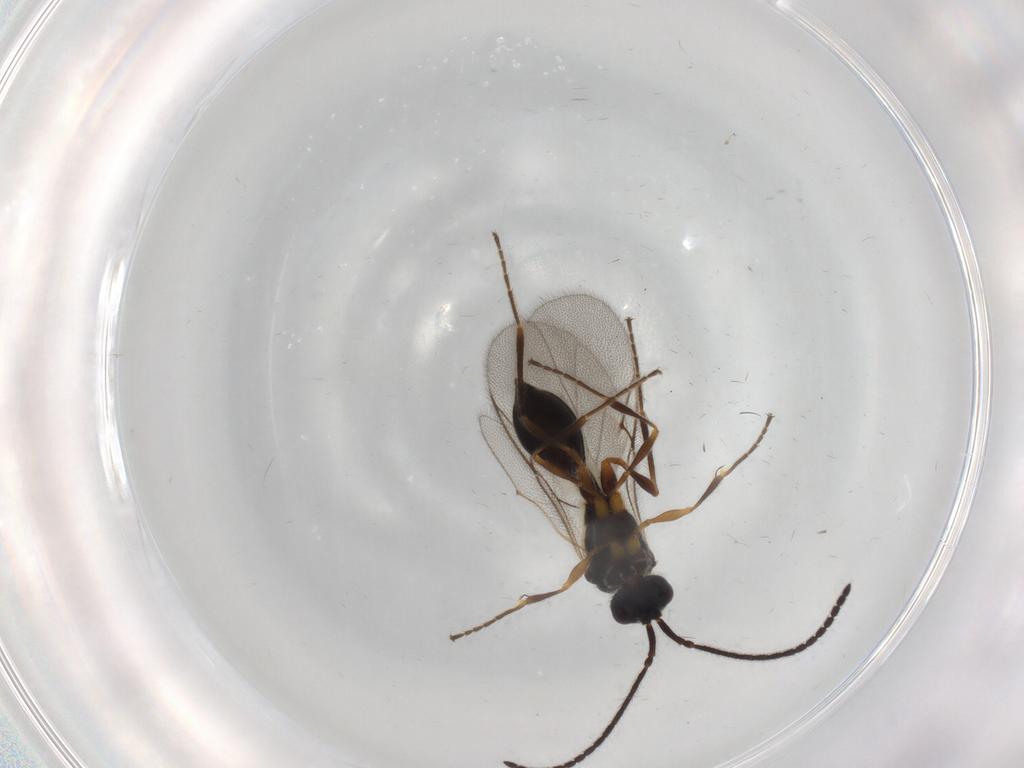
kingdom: Animalia
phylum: Arthropoda
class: Insecta
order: Hymenoptera
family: Diapriidae
